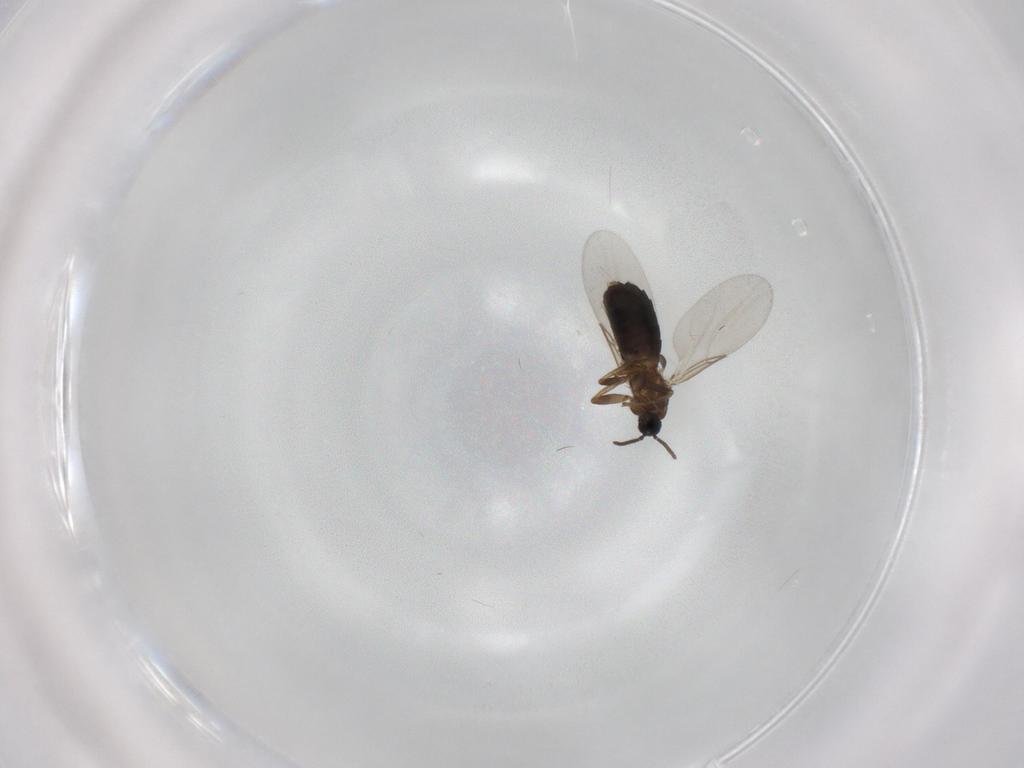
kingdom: Animalia
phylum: Arthropoda
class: Insecta
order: Diptera
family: Scatopsidae
